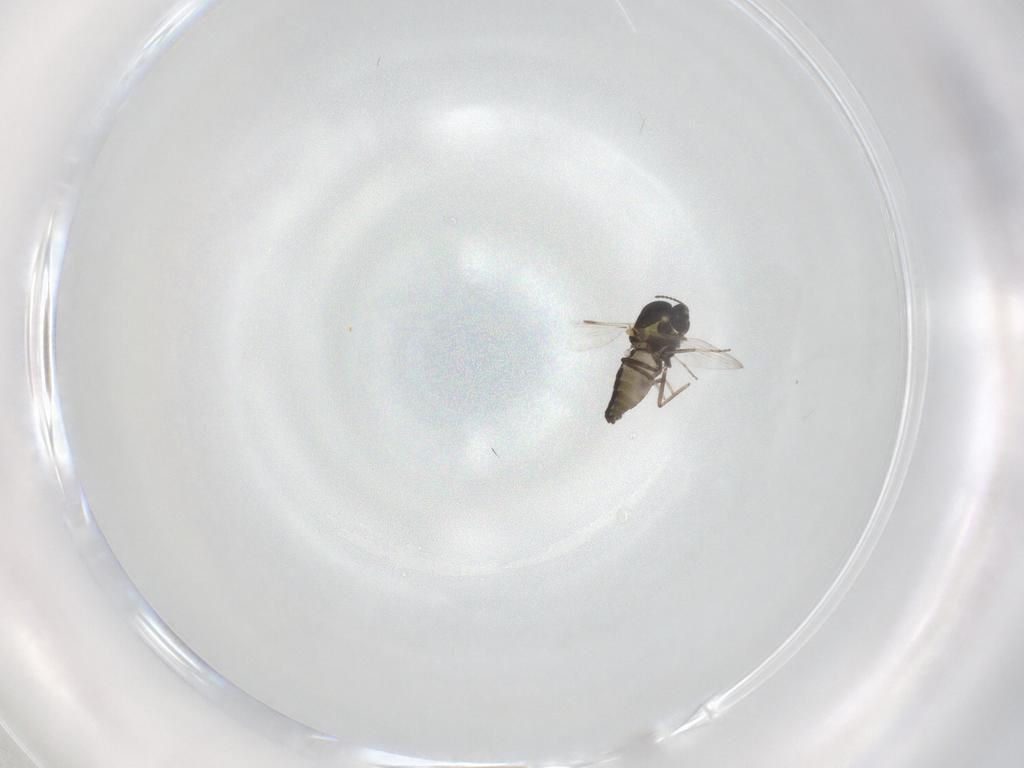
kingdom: Animalia
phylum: Arthropoda
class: Insecta
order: Diptera
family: Ceratopogonidae
